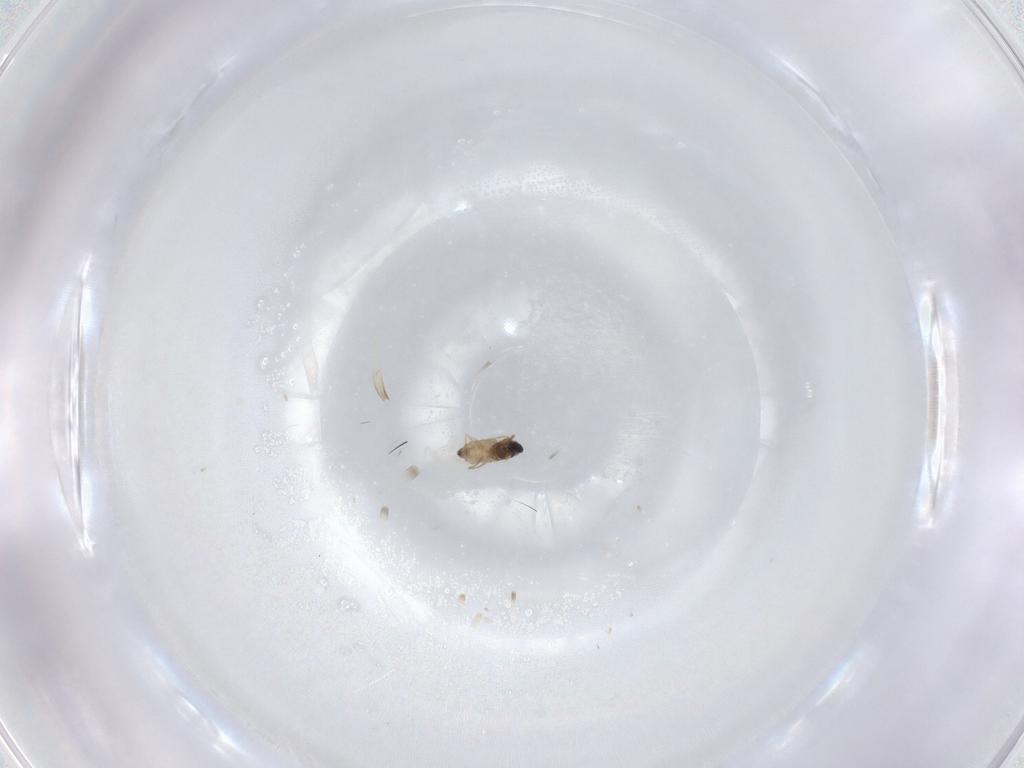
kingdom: Animalia
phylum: Arthropoda
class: Insecta
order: Diptera
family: Cecidomyiidae
